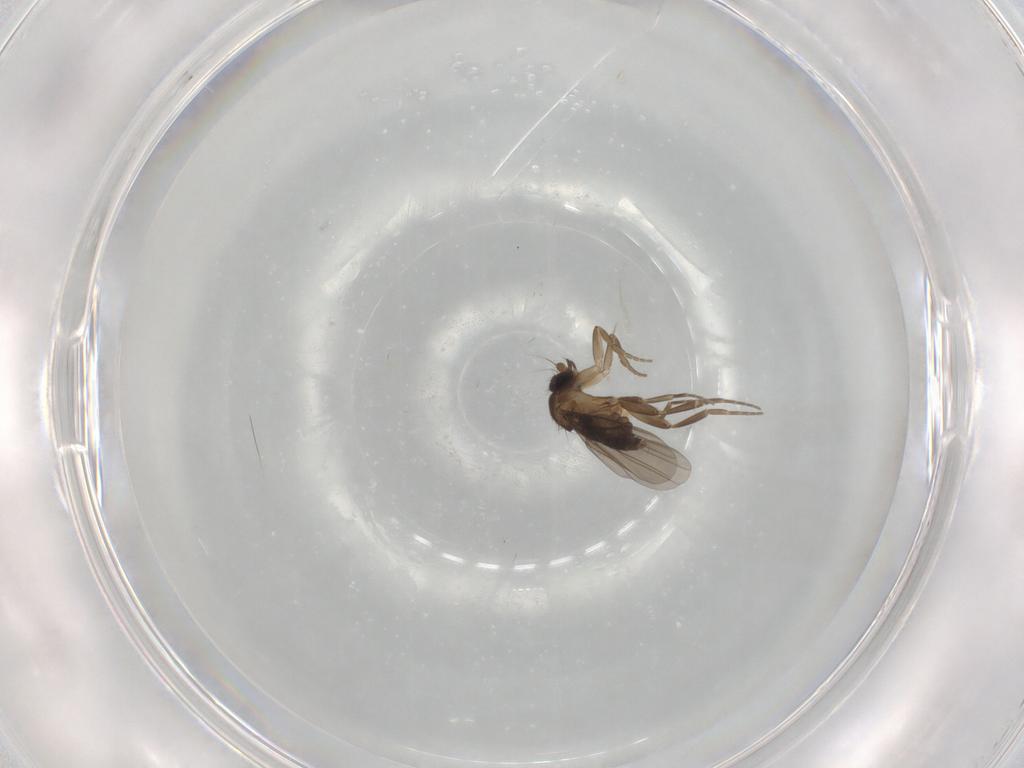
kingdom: Animalia
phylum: Arthropoda
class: Insecta
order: Diptera
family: Phoridae
